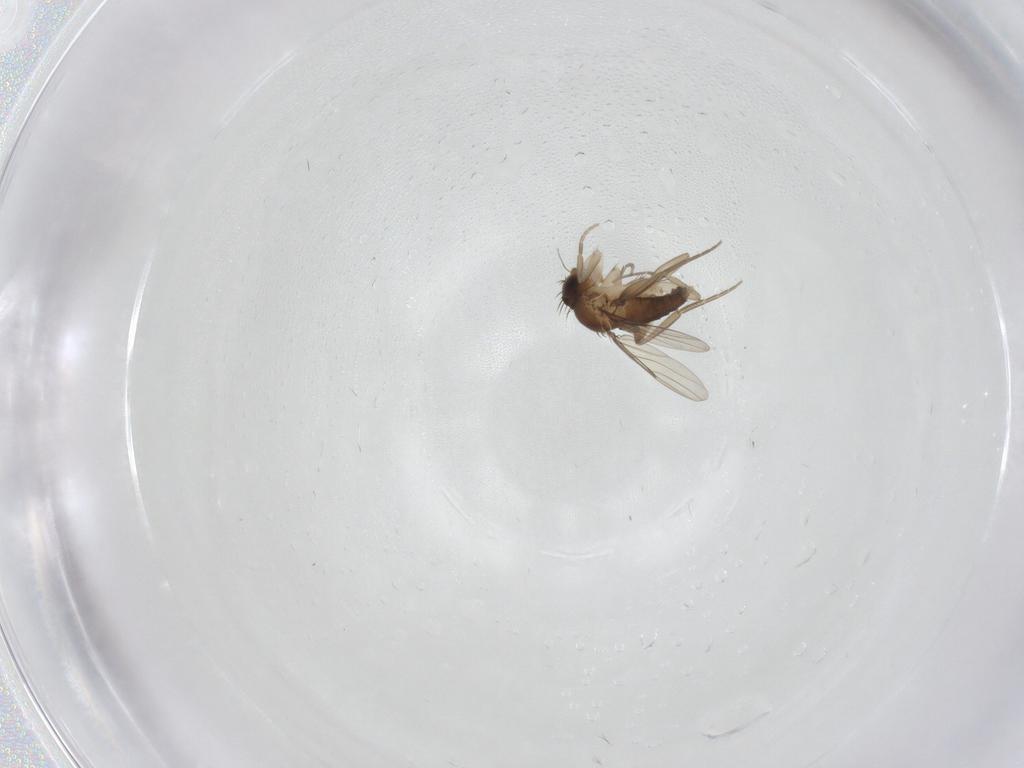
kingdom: Animalia
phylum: Arthropoda
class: Insecta
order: Diptera
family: Phoridae
